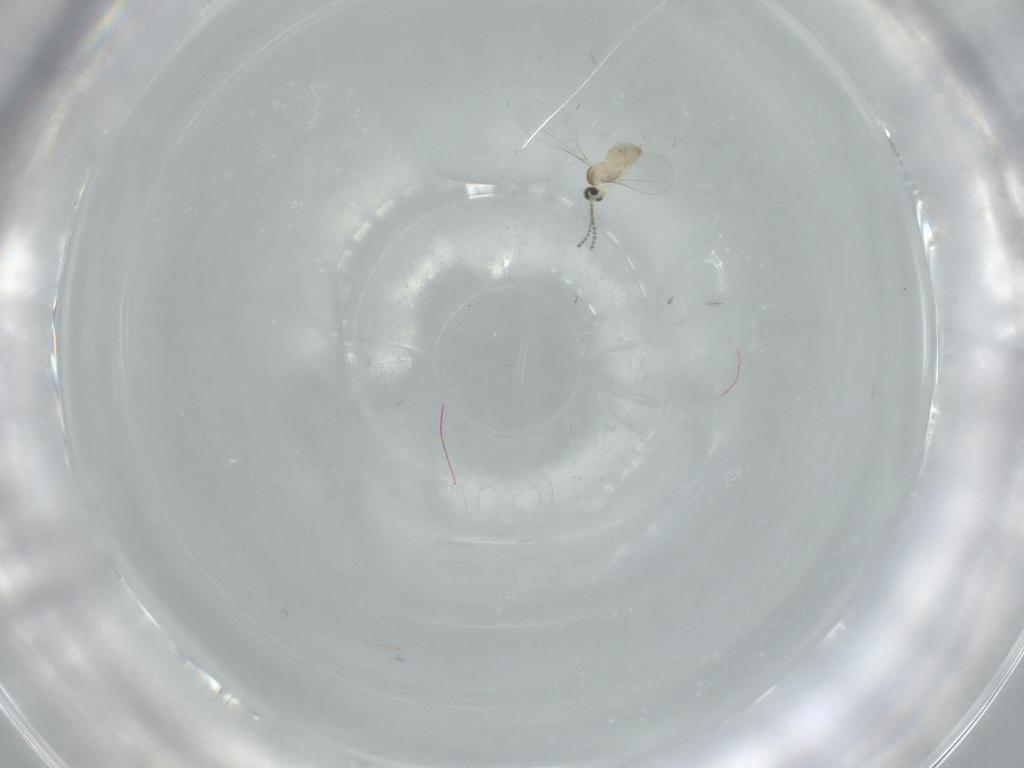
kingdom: Animalia
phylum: Arthropoda
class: Insecta
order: Diptera
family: Cecidomyiidae
